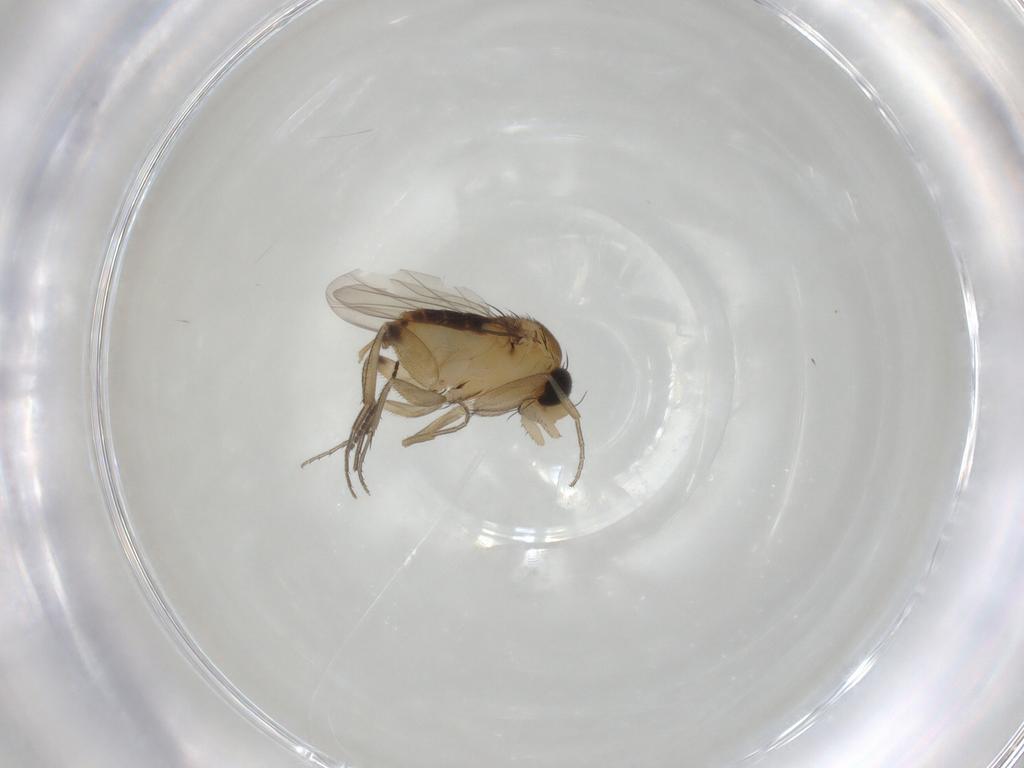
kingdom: Animalia
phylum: Arthropoda
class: Insecta
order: Diptera
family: Phoridae
